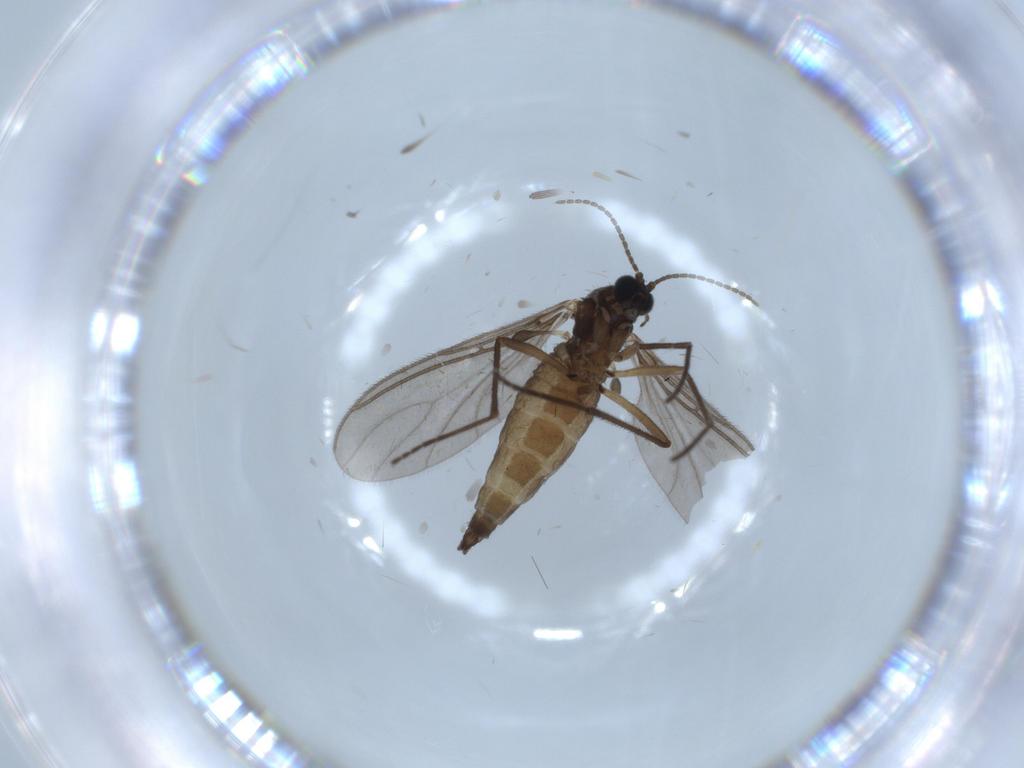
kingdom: Animalia
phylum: Arthropoda
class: Insecta
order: Diptera
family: Sciaridae
